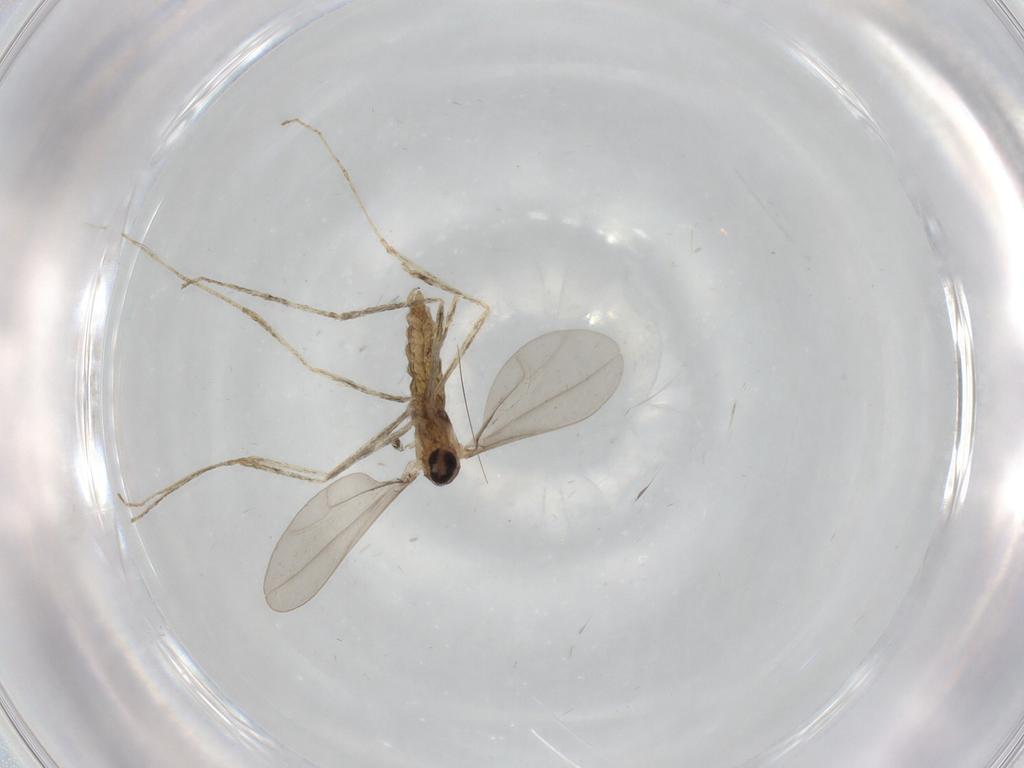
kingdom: Animalia
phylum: Arthropoda
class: Insecta
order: Diptera
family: Cecidomyiidae
